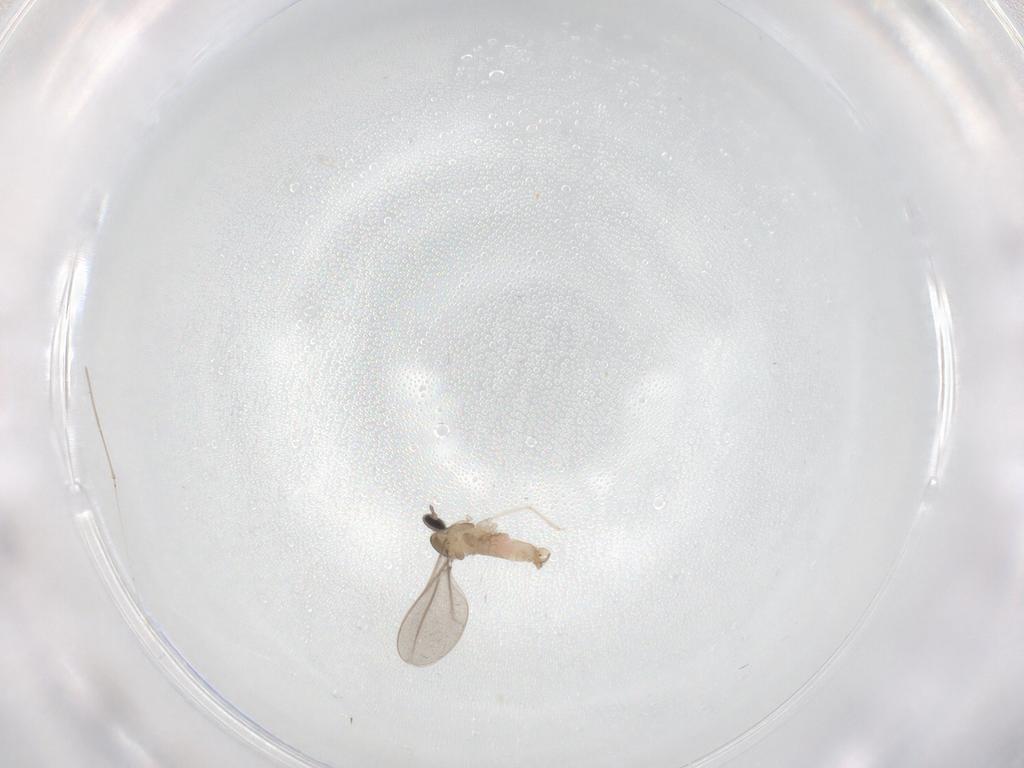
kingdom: Animalia
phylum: Arthropoda
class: Insecta
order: Diptera
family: Cecidomyiidae
